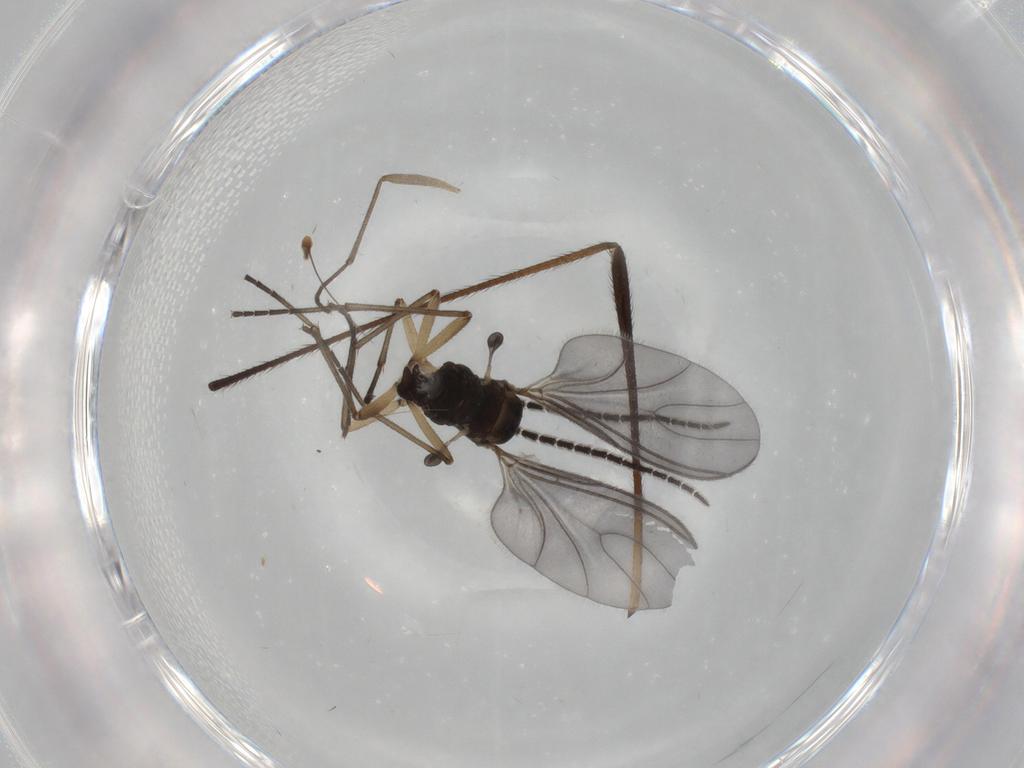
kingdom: Animalia
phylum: Arthropoda
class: Insecta
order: Diptera
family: Sciaridae
